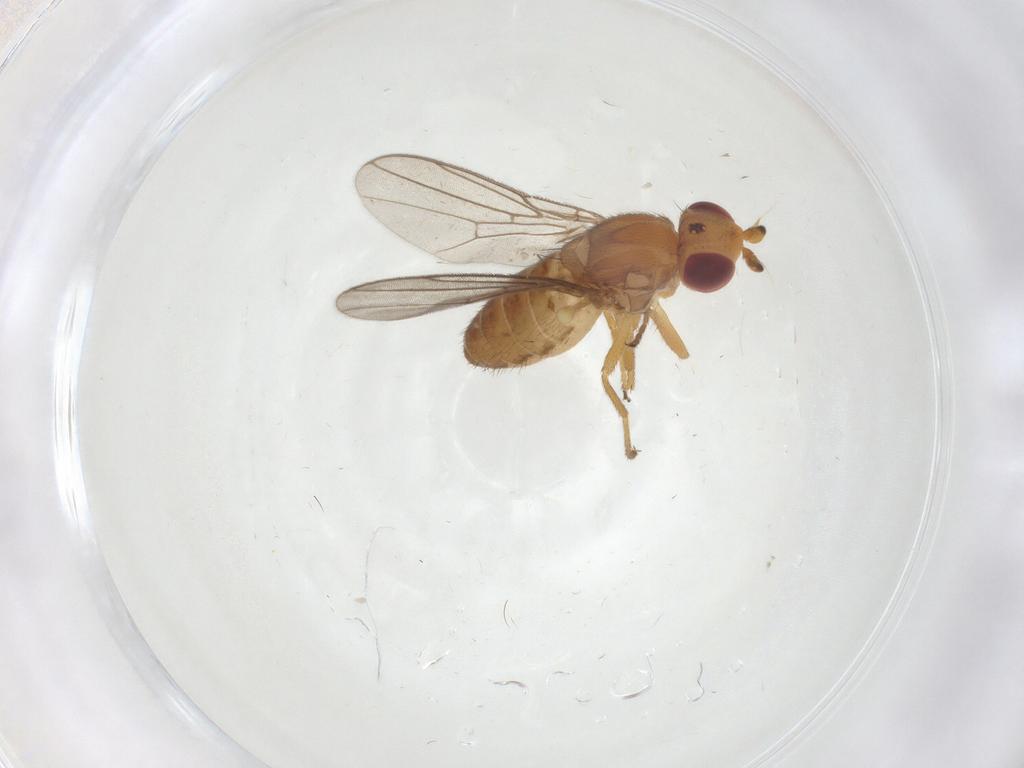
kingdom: Animalia
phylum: Arthropoda
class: Insecta
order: Diptera
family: Chloropidae
